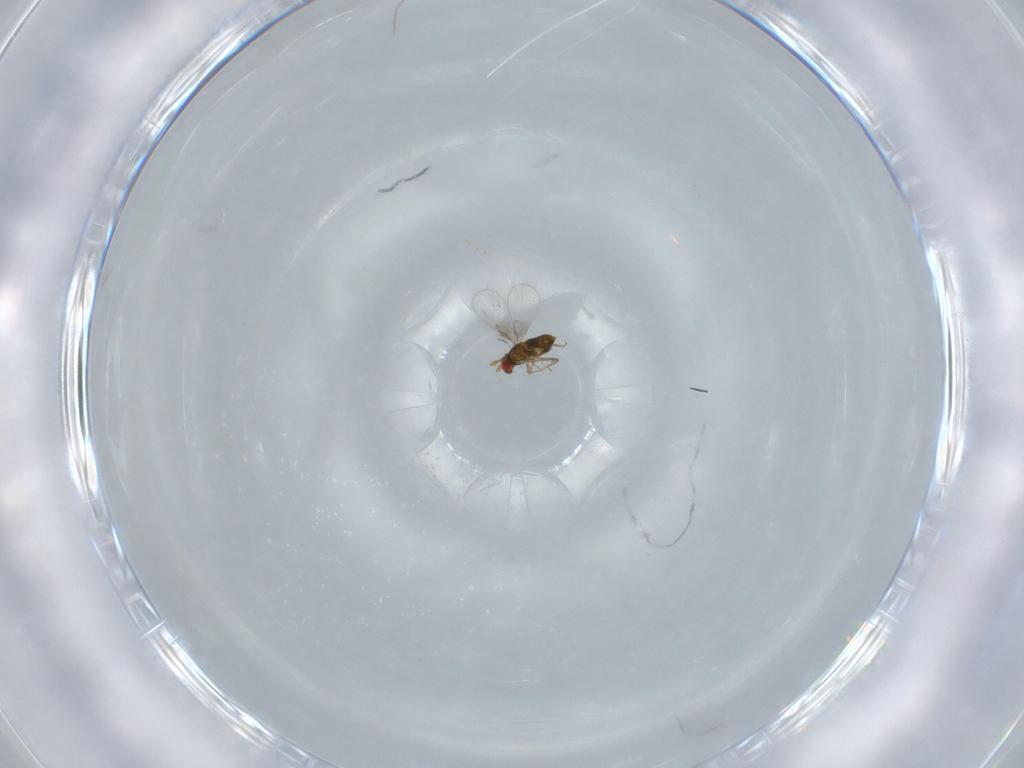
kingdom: Animalia
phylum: Arthropoda
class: Insecta
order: Hymenoptera
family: Trichogrammatidae
